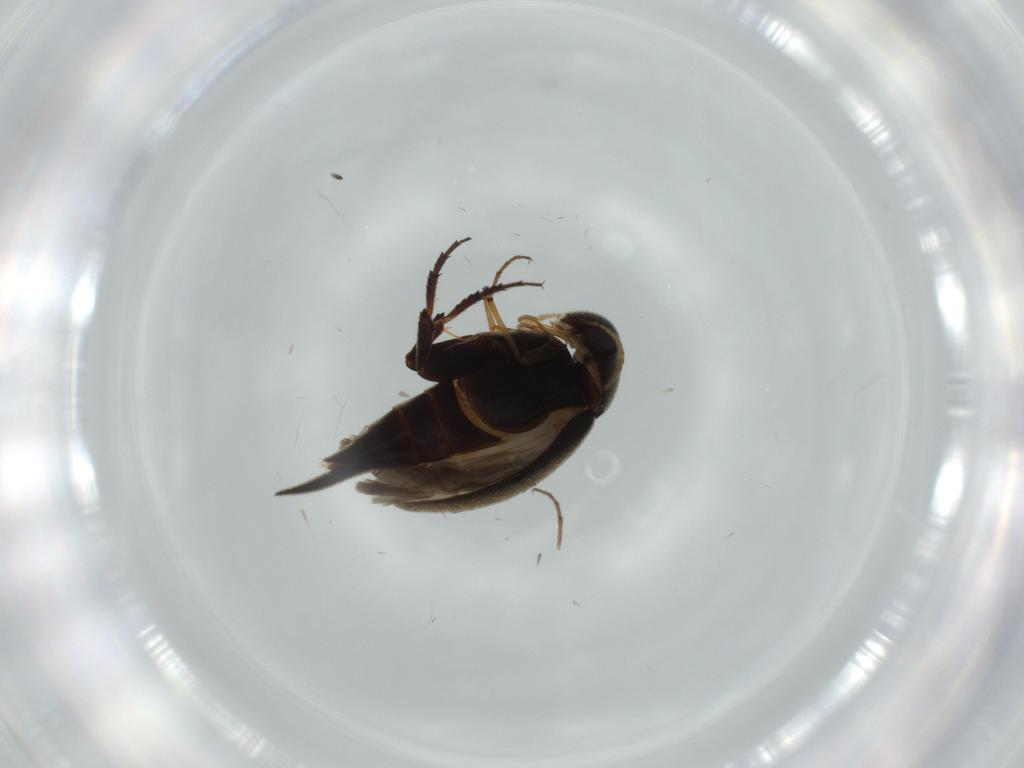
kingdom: Animalia
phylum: Arthropoda
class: Insecta
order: Coleoptera
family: Mordellidae
